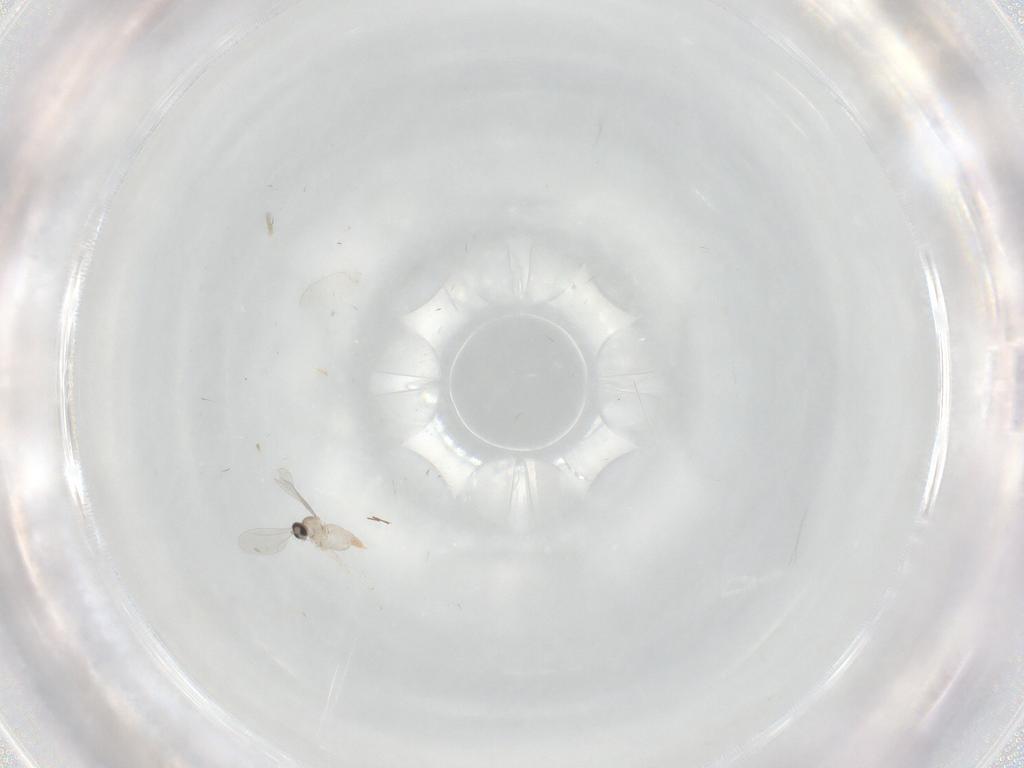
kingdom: Animalia
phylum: Arthropoda
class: Insecta
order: Diptera
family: Cecidomyiidae
